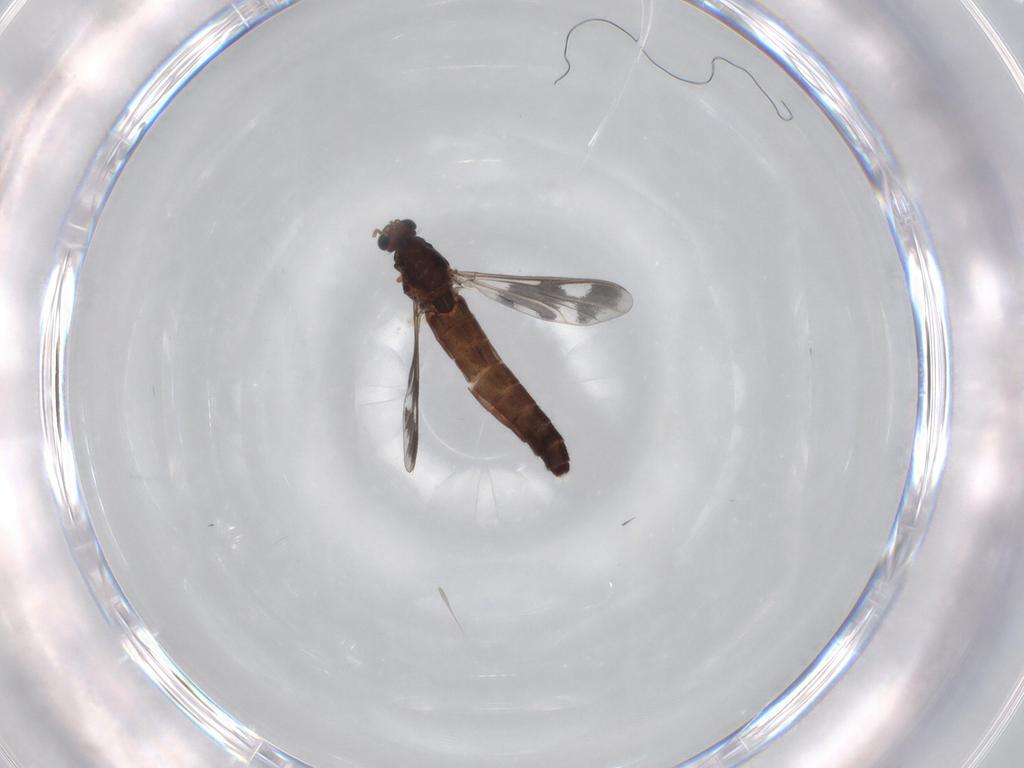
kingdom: Animalia
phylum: Arthropoda
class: Insecta
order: Diptera
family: Chironomidae
